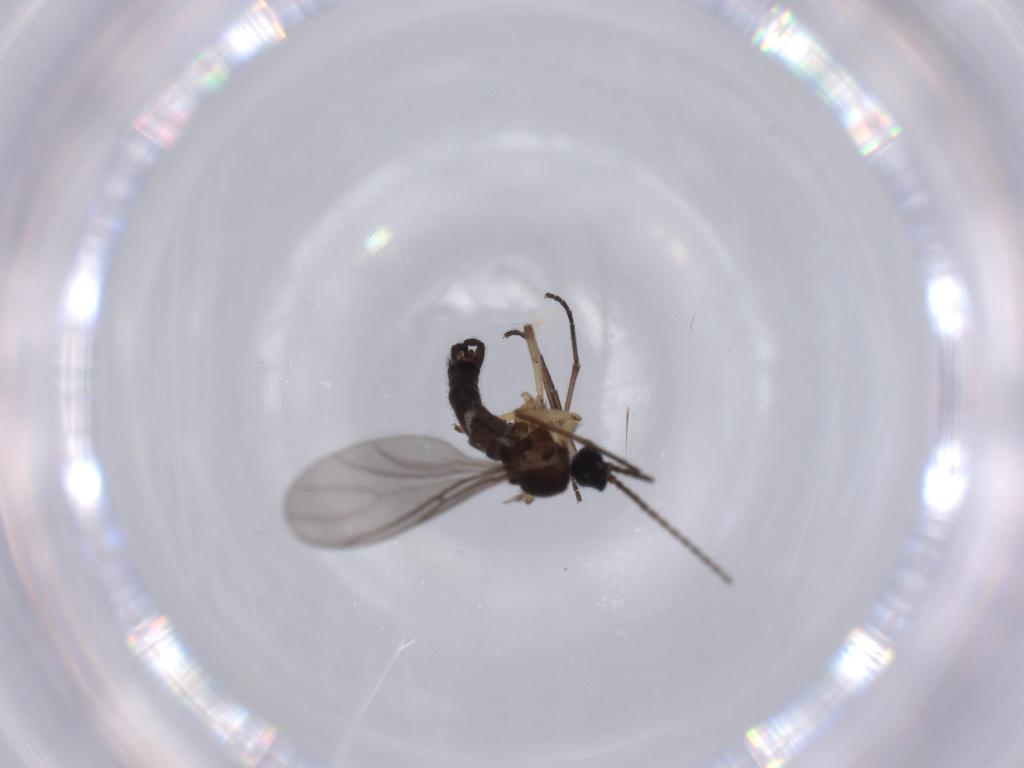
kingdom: Animalia
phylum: Arthropoda
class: Insecta
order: Diptera
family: Sciaridae
